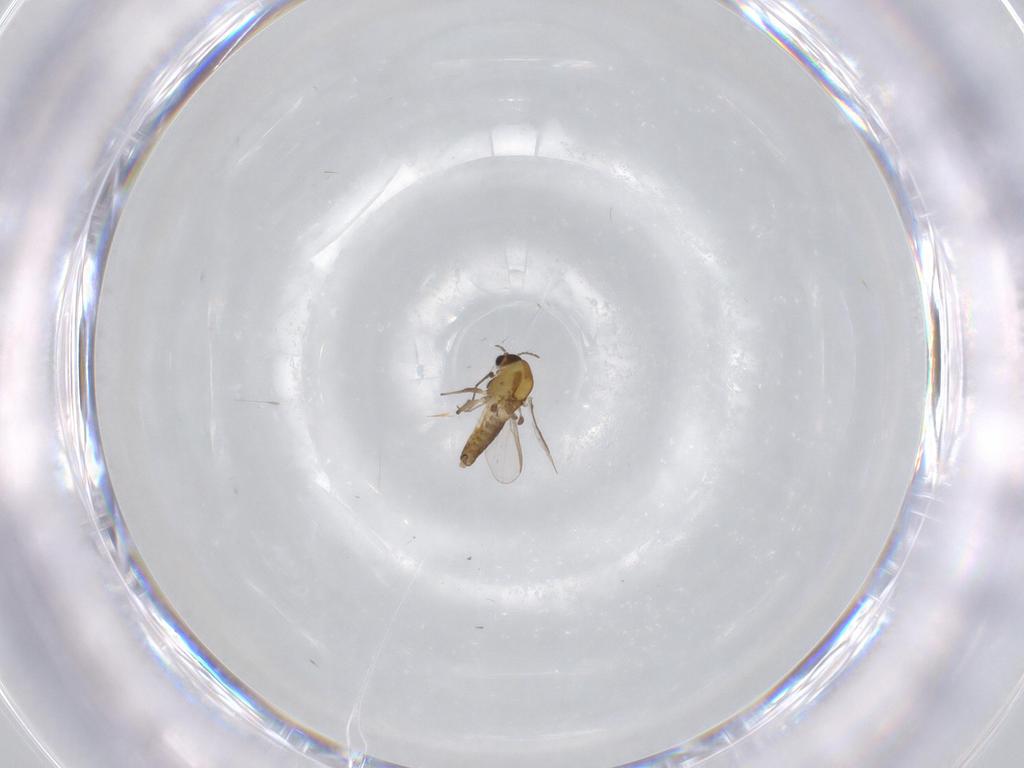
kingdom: Animalia
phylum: Arthropoda
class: Insecta
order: Diptera
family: Chironomidae
